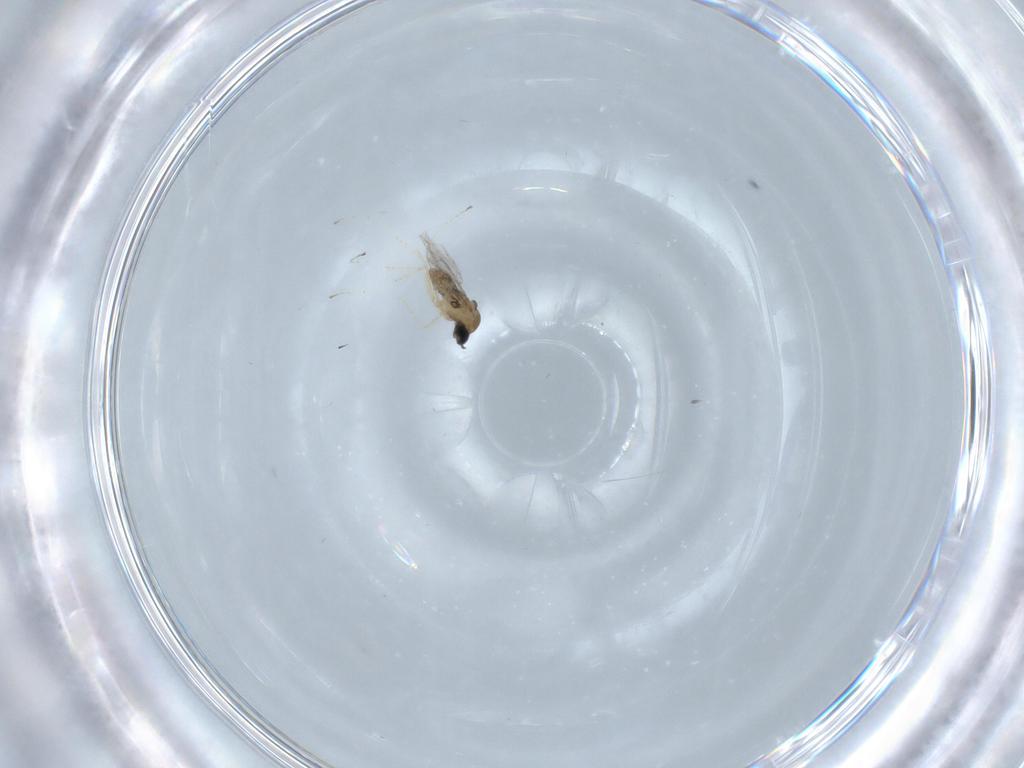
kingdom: Animalia
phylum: Arthropoda
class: Insecta
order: Diptera
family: Cecidomyiidae
